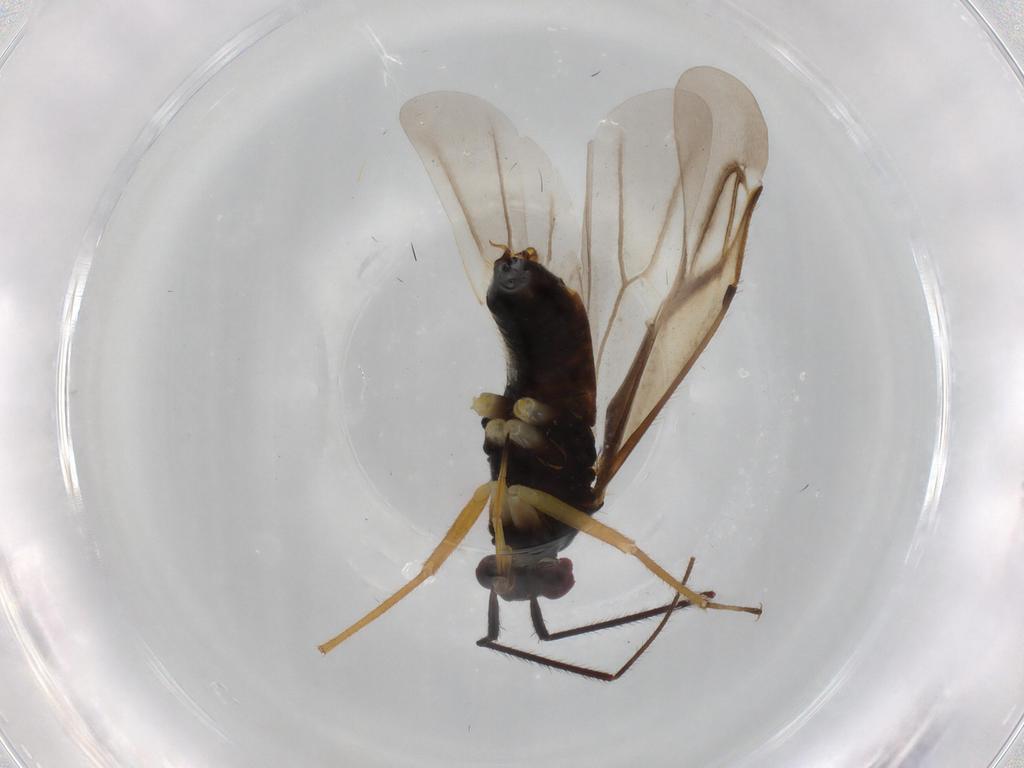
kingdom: Animalia
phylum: Arthropoda
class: Insecta
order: Hemiptera
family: Miridae
